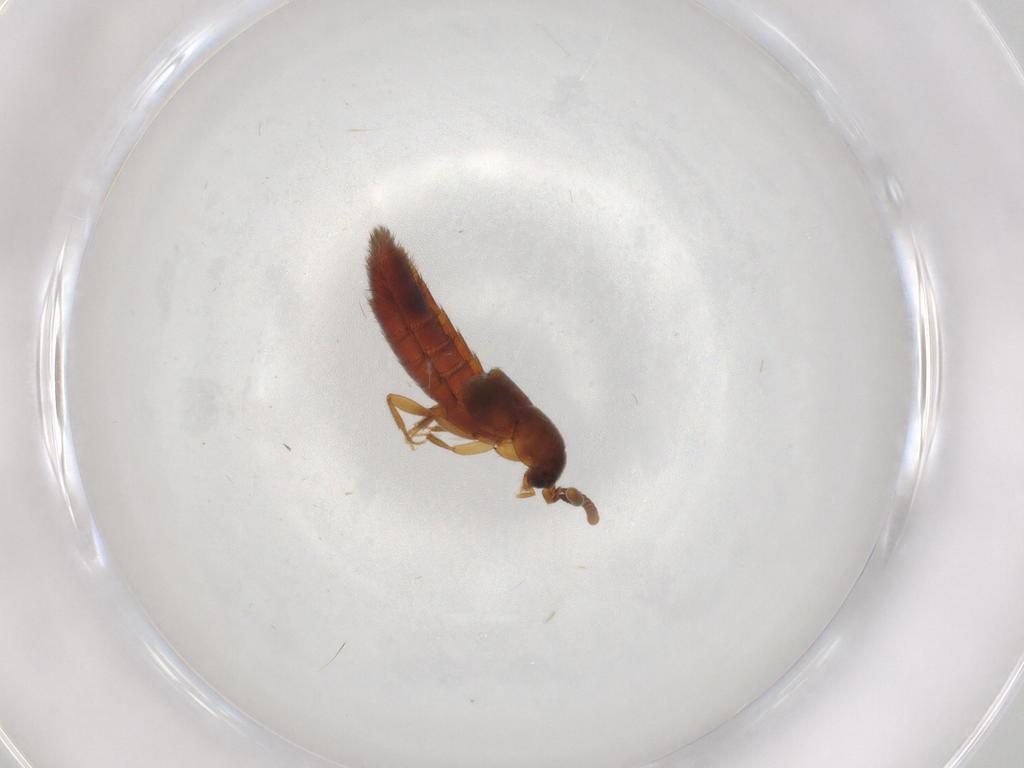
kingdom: Animalia
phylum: Arthropoda
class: Insecta
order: Coleoptera
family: Staphylinidae
